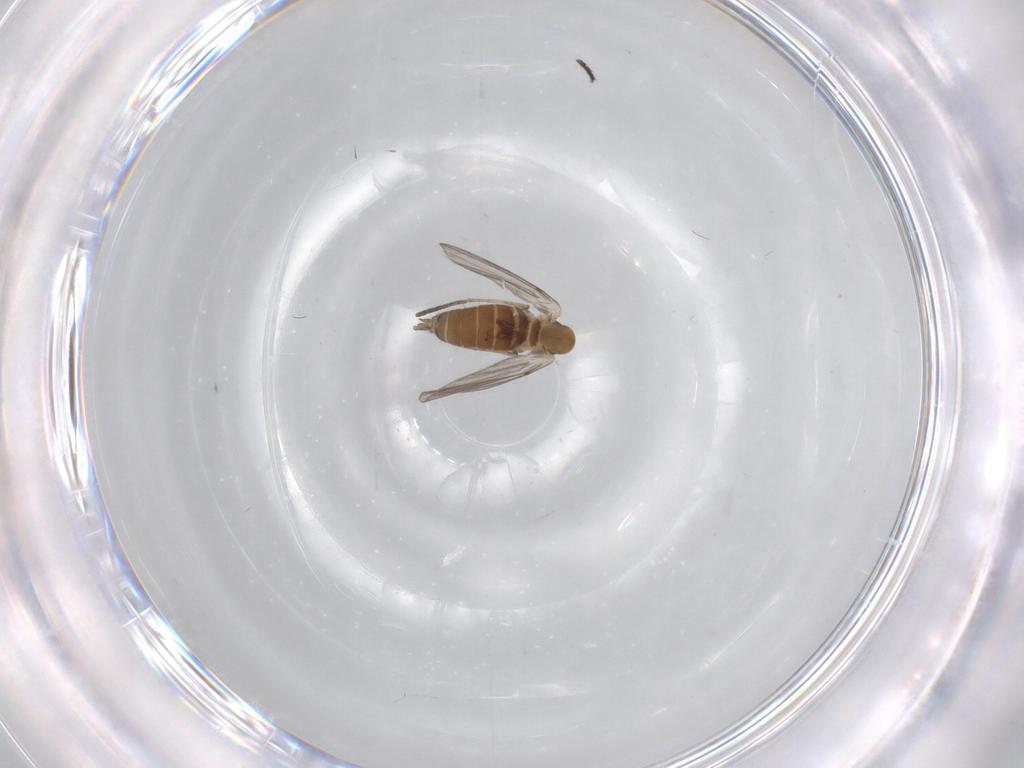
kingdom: Animalia
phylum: Arthropoda
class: Insecta
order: Diptera
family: Dolichopodidae
